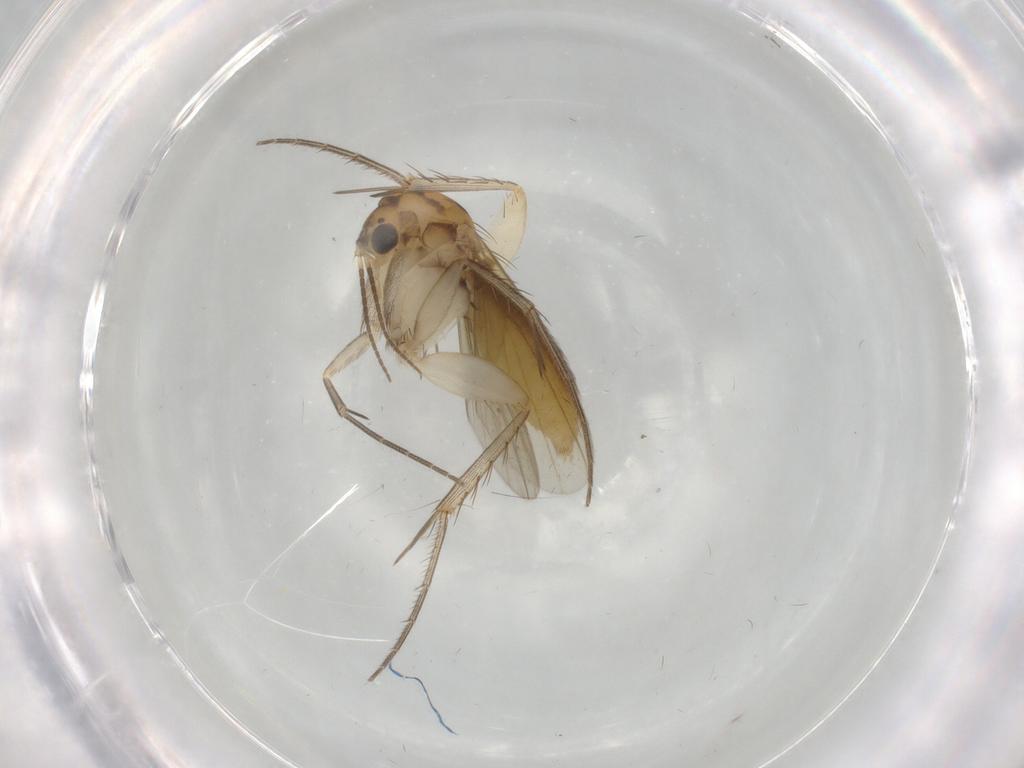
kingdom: Animalia
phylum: Arthropoda
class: Insecta
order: Diptera
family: Mycetophilidae
